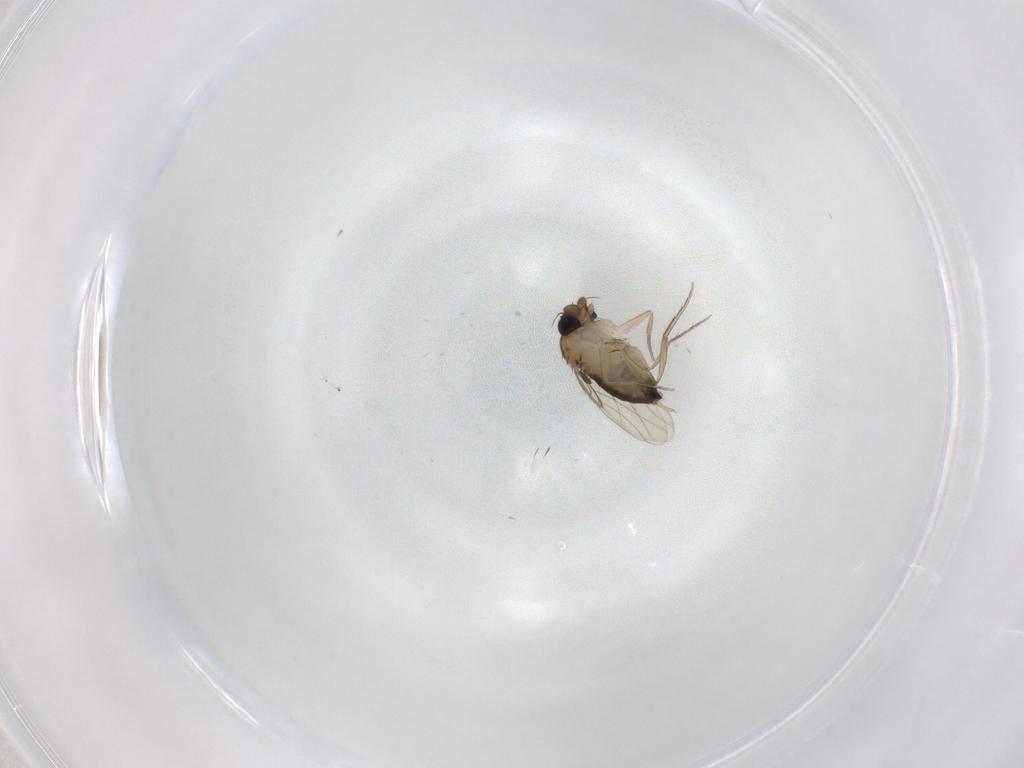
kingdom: Animalia
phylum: Arthropoda
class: Insecta
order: Diptera
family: Phoridae
